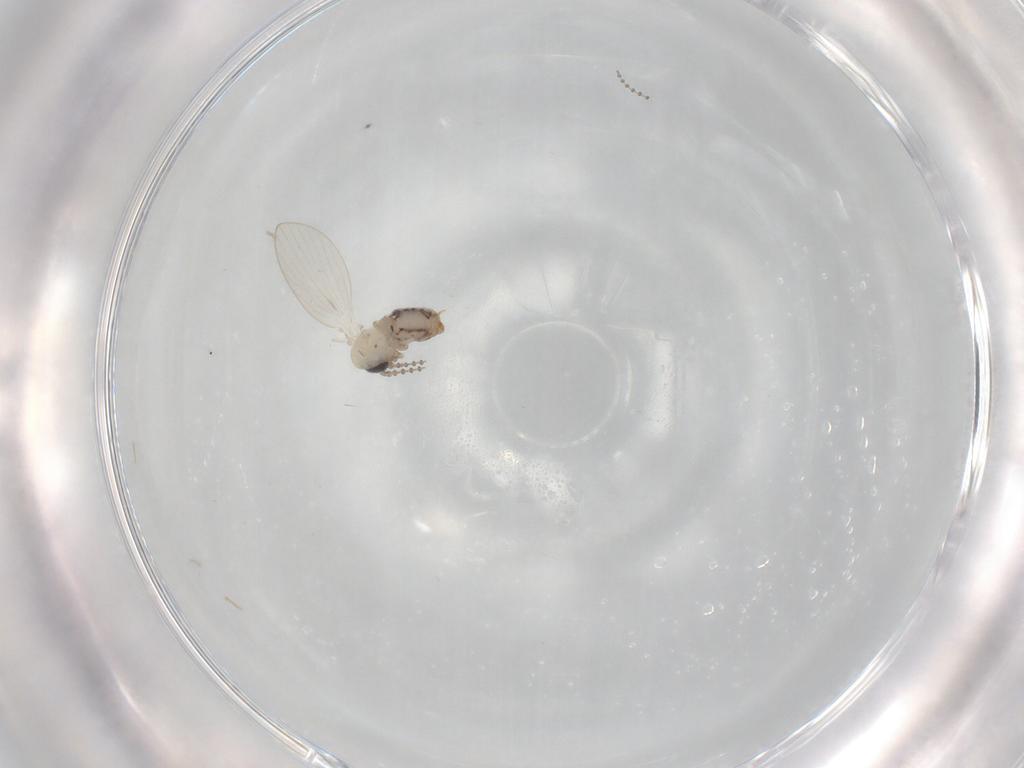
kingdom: Animalia
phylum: Arthropoda
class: Insecta
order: Diptera
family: Psychodidae
